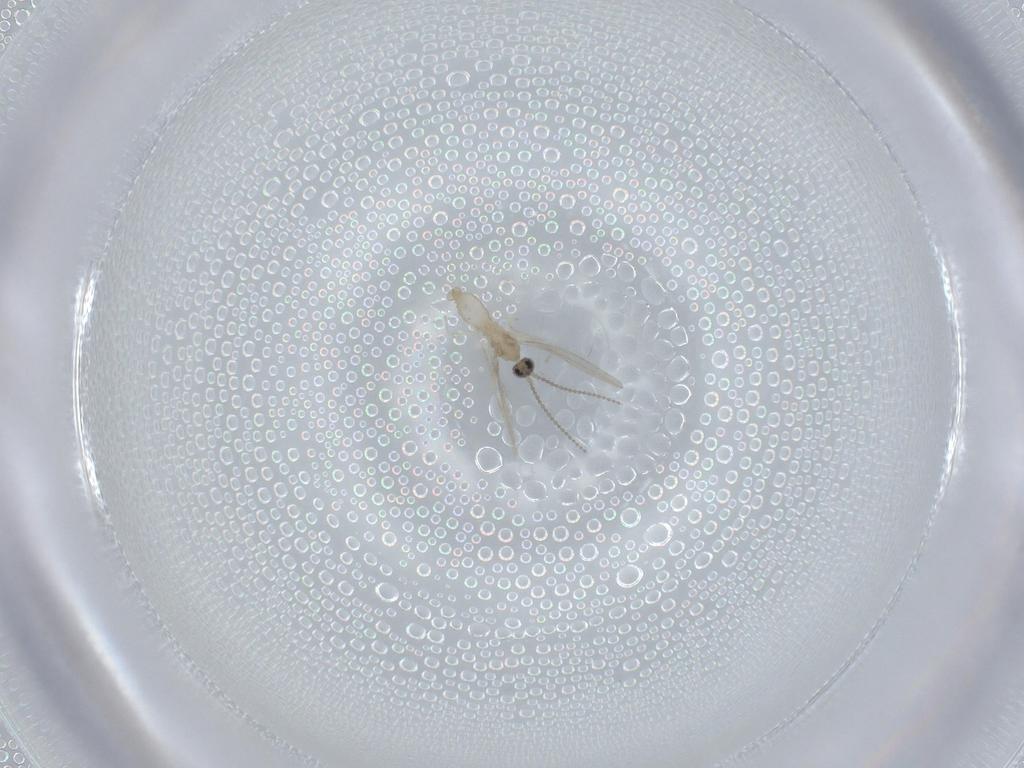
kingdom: Animalia
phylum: Arthropoda
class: Insecta
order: Diptera
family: Cecidomyiidae
